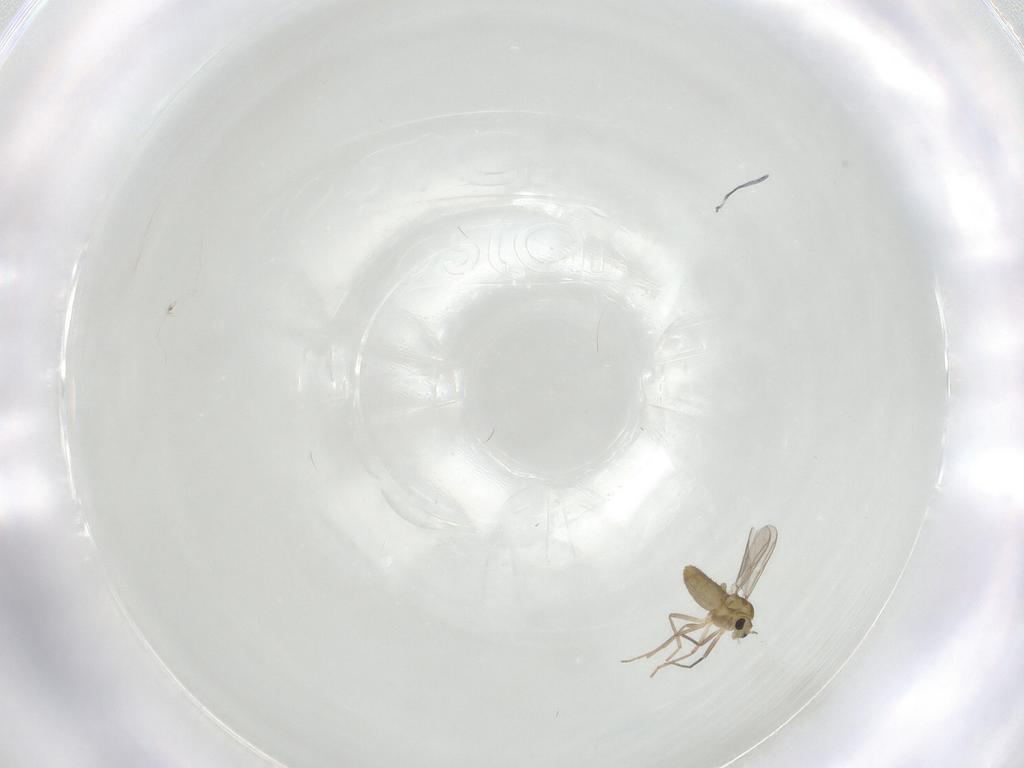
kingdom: Animalia
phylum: Arthropoda
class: Insecta
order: Diptera
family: Chironomidae
